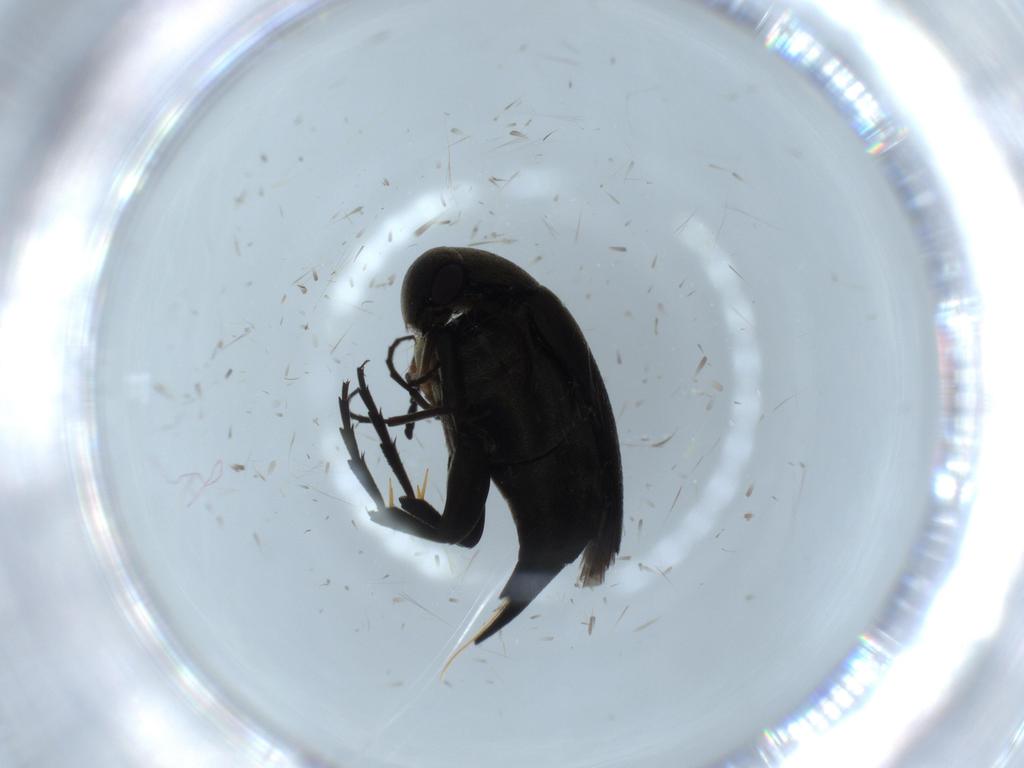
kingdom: Animalia
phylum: Arthropoda
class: Insecta
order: Coleoptera
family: Mordellidae
